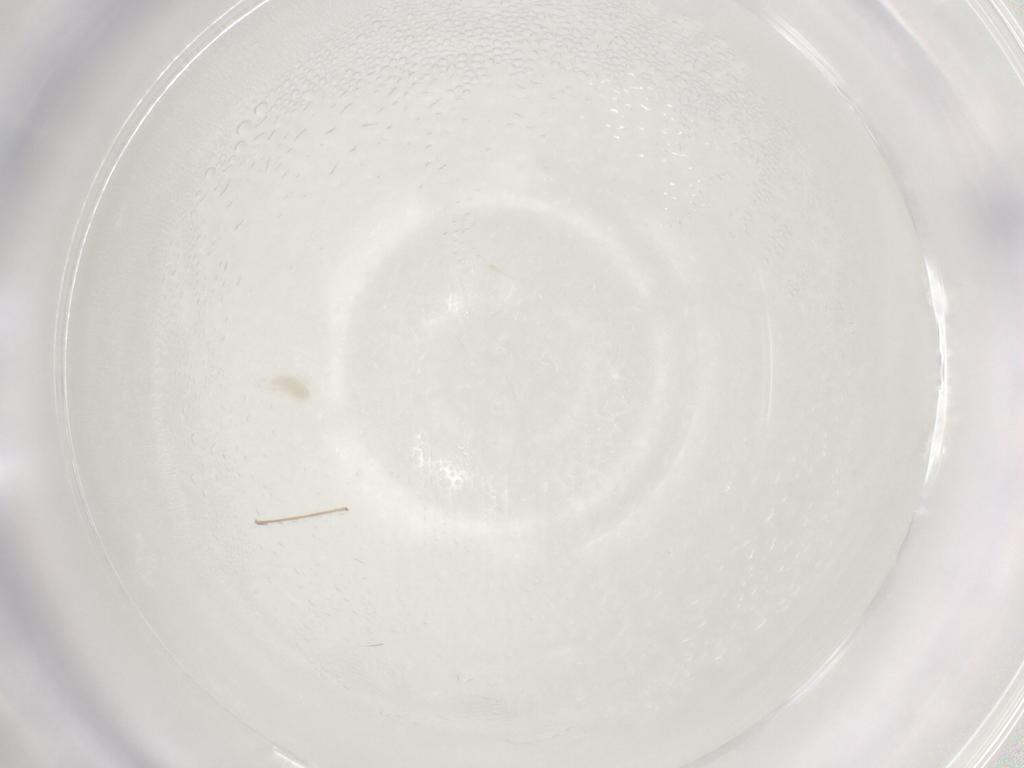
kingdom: Animalia
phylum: Arthropoda
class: Arachnida
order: Trombidiformes
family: Eupodidae
